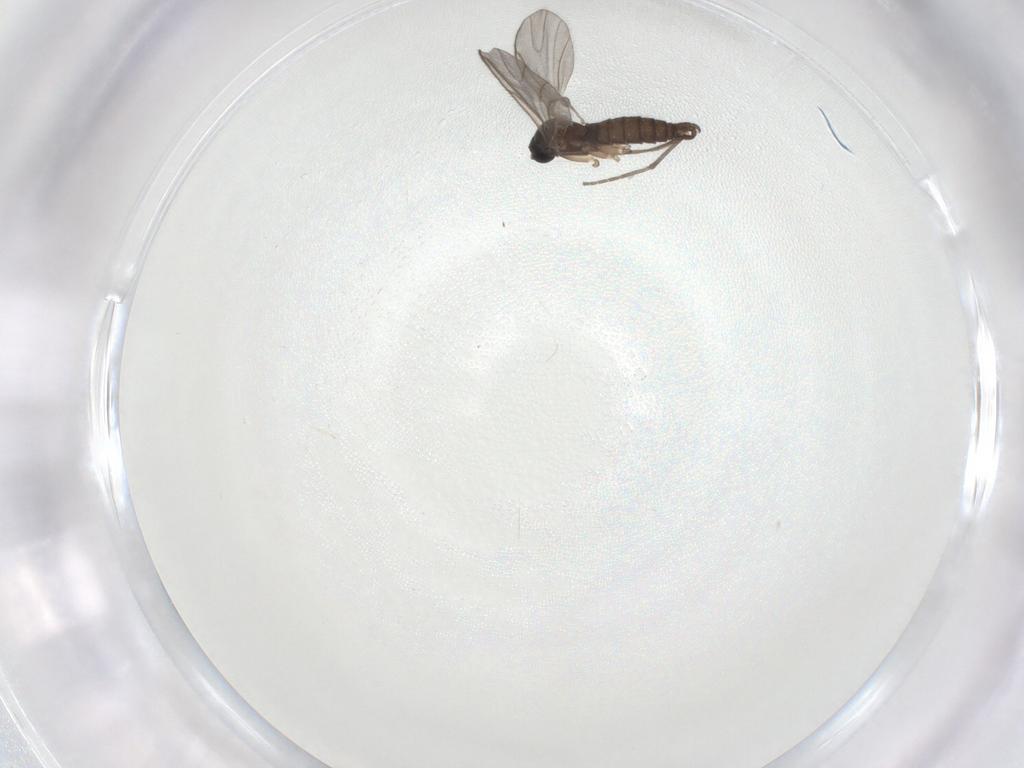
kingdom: Animalia
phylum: Arthropoda
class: Insecta
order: Diptera
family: Sciaridae
